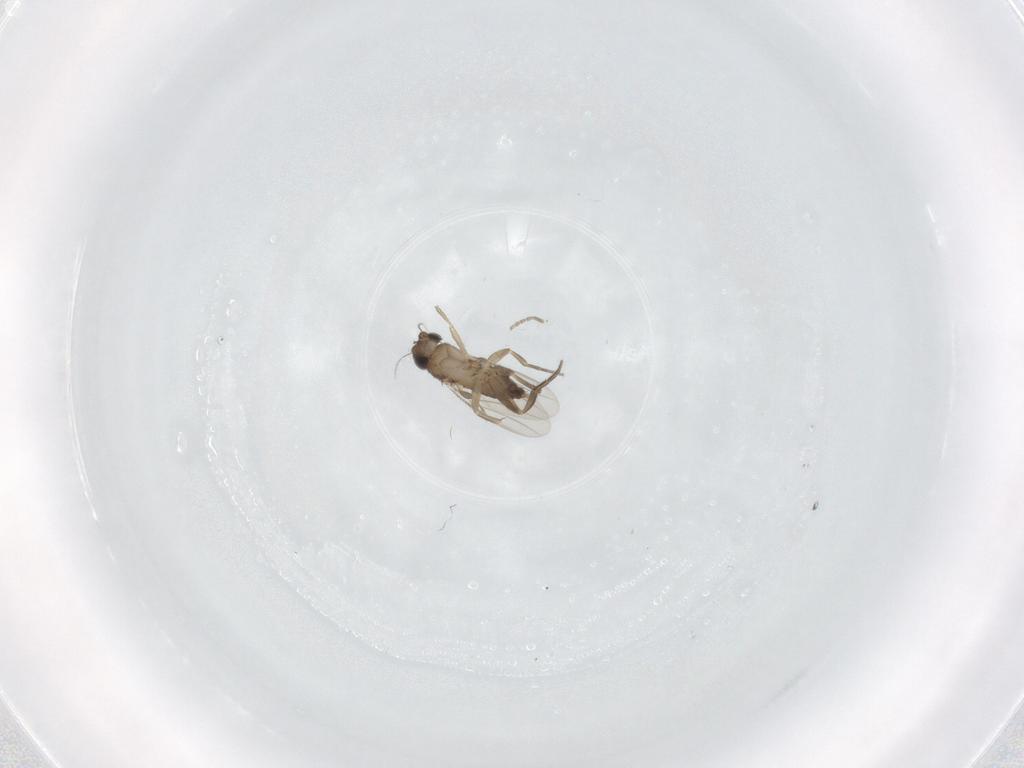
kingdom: Animalia
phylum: Arthropoda
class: Insecta
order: Diptera
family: Phoridae
